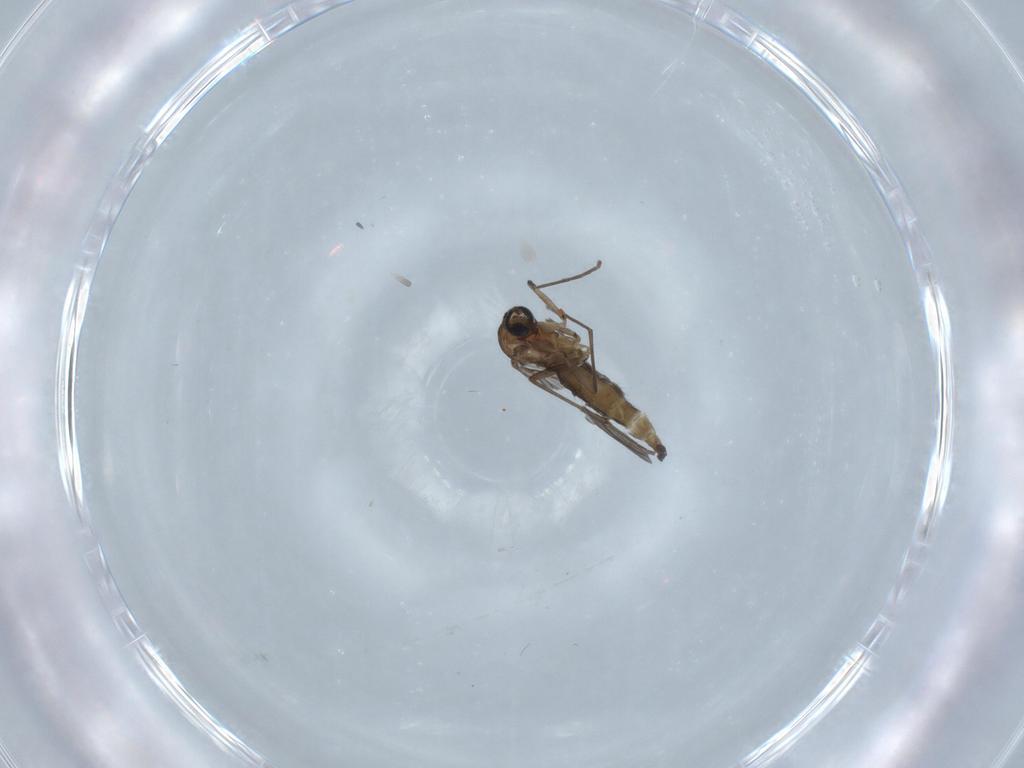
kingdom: Animalia
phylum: Arthropoda
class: Insecta
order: Diptera
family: Sciaridae
